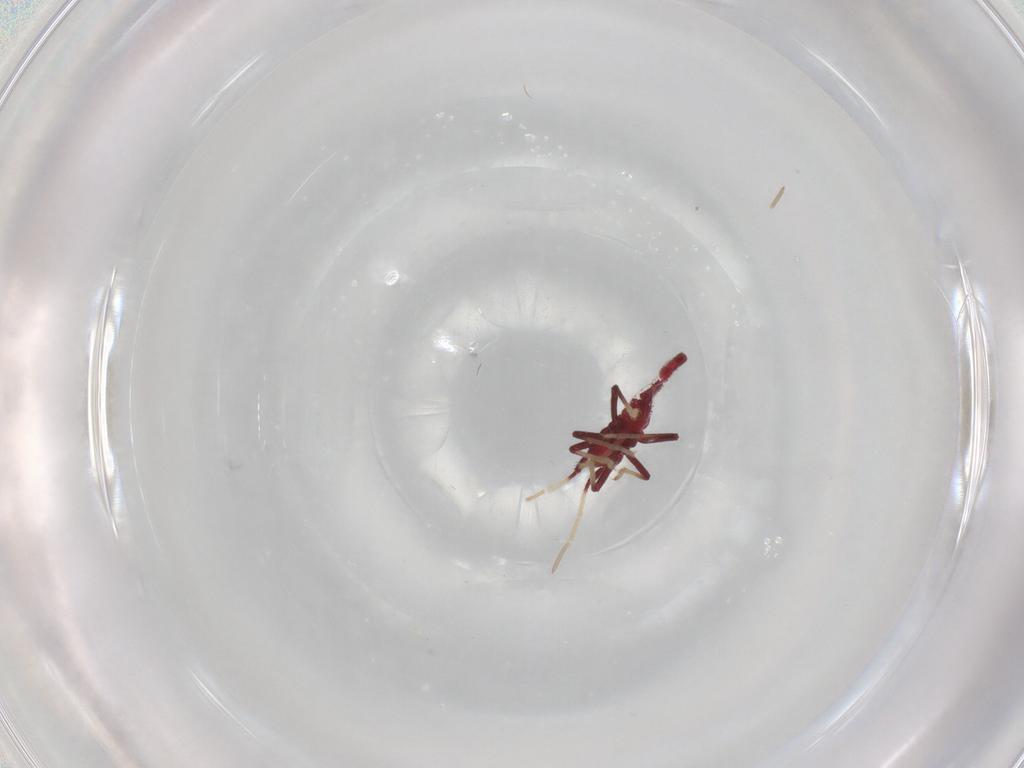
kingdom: Animalia
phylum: Arthropoda
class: Insecta
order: Hemiptera
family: Miridae
